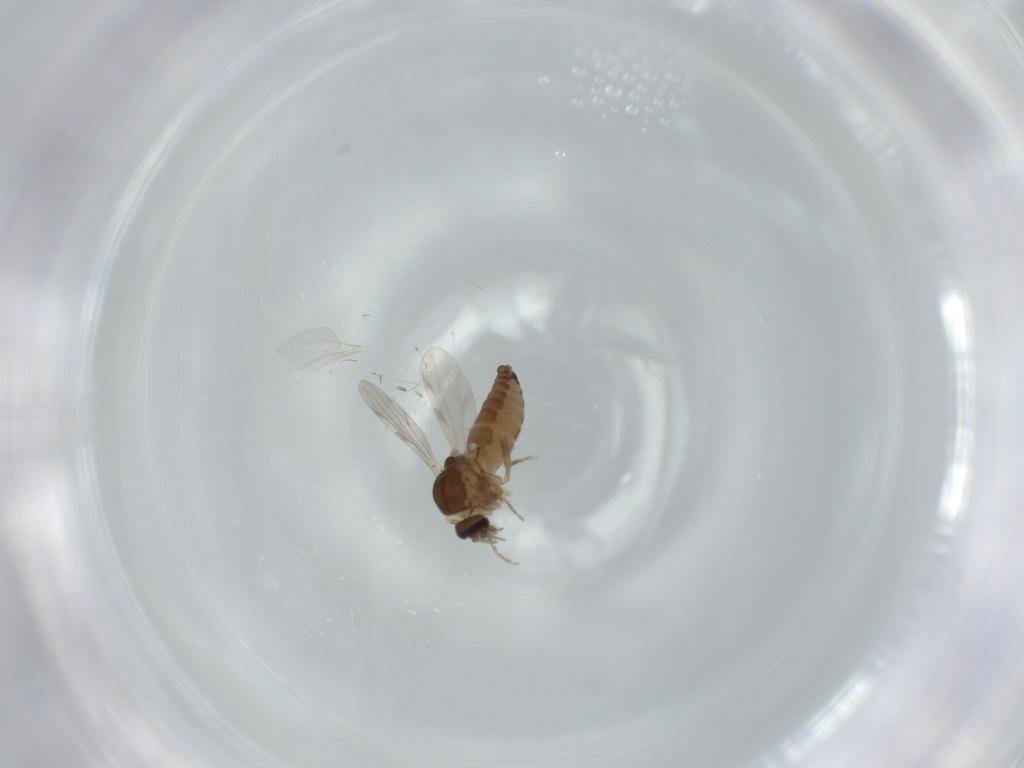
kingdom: Animalia
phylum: Arthropoda
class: Insecta
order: Diptera
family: Ceratopogonidae
